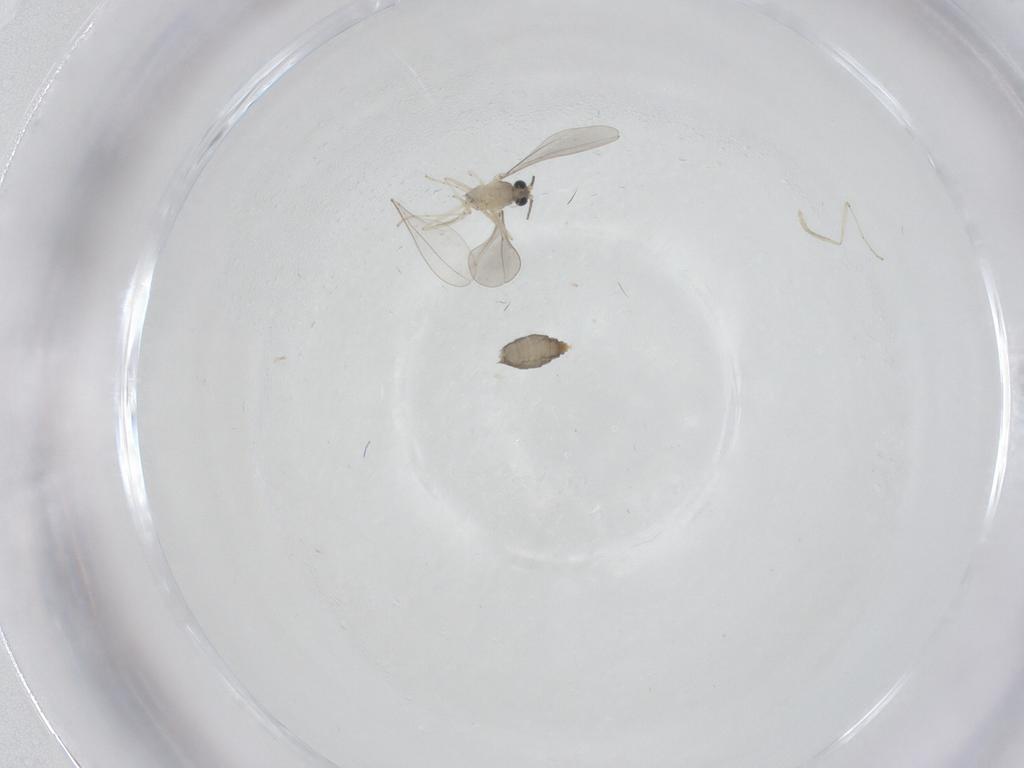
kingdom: Animalia
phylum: Arthropoda
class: Insecta
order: Diptera
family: Cecidomyiidae
